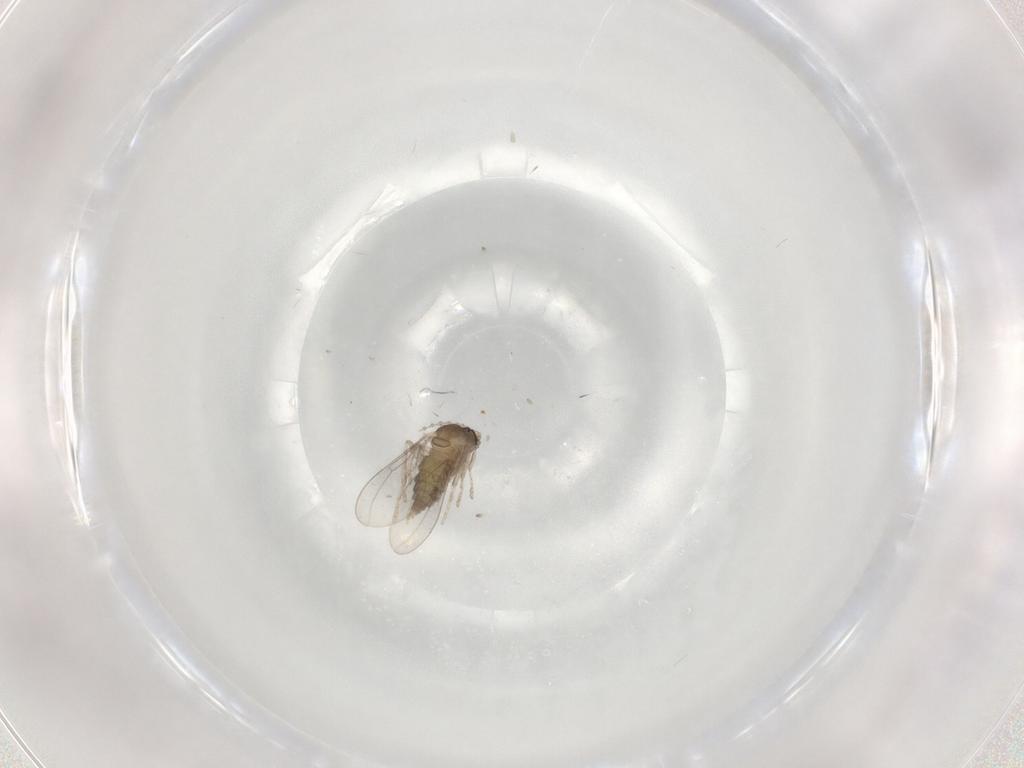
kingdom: Animalia
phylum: Arthropoda
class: Insecta
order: Diptera
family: Cecidomyiidae
